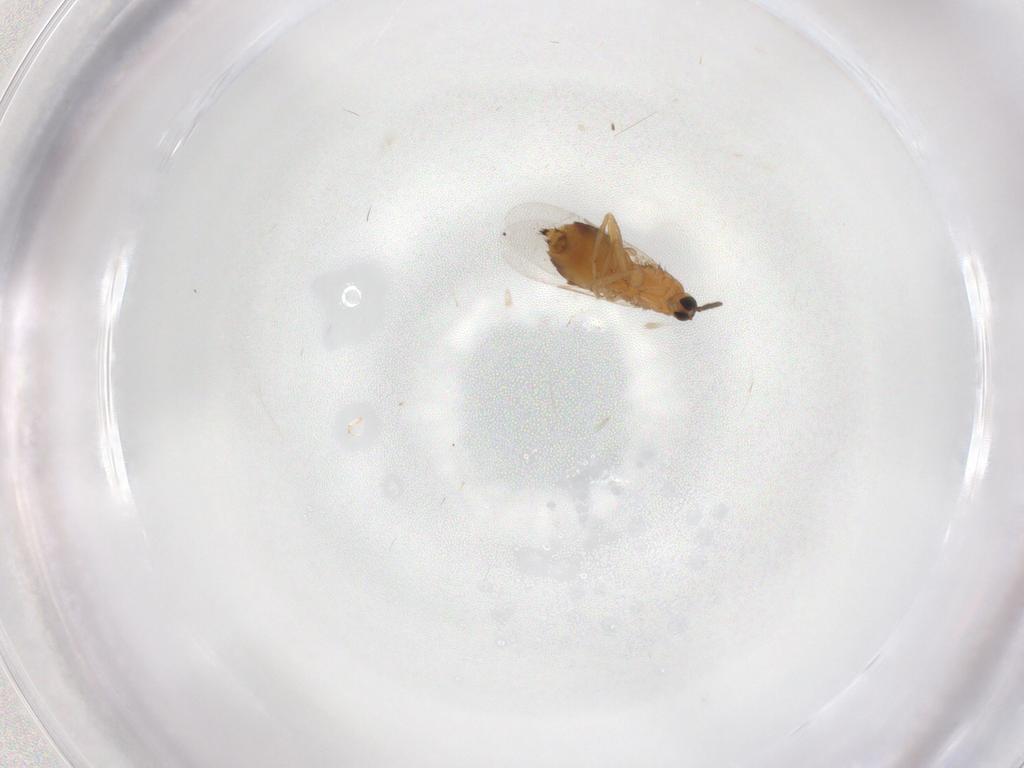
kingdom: Animalia
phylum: Arthropoda
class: Insecta
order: Diptera
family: Scatopsidae
